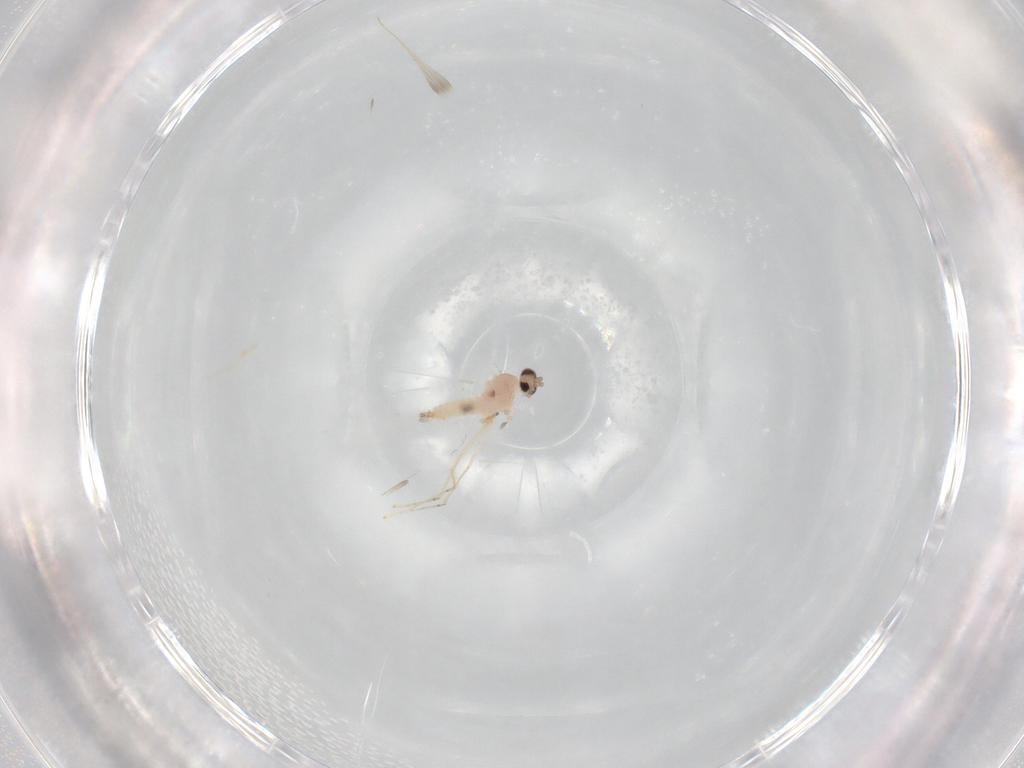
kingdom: Animalia
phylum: Arthropoda
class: Insecta
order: Diptera
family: Cecidomyiidae
